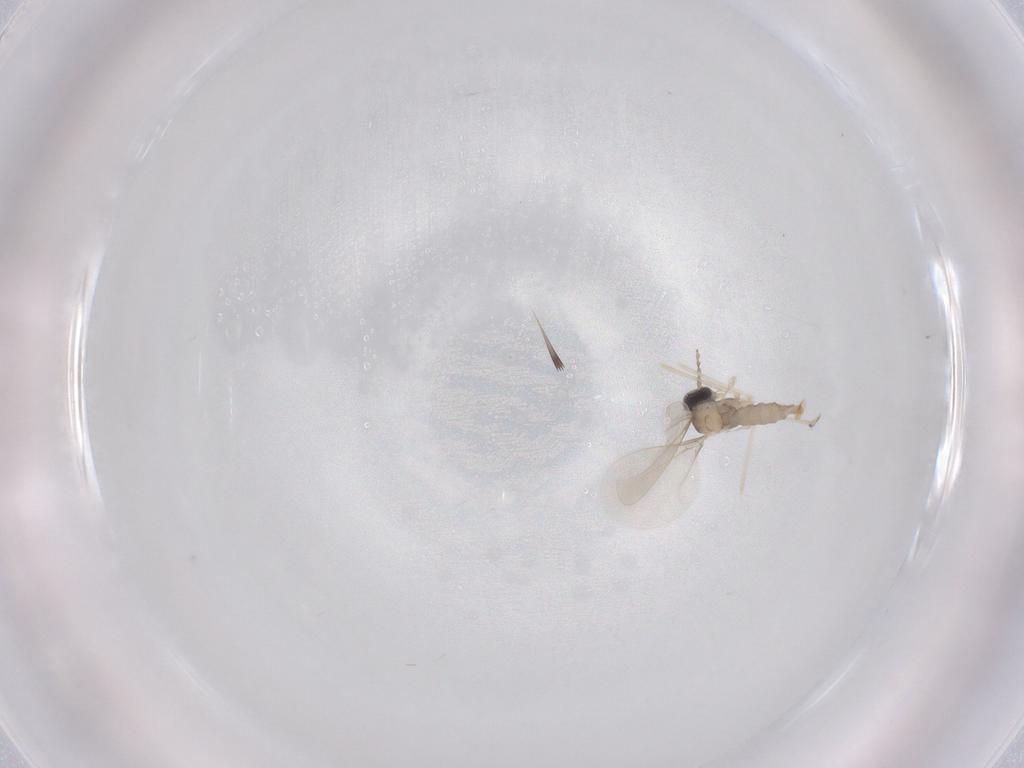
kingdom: Animalia
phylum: Arthropoda
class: Insecta
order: Diptera
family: Cecidomyiidae
